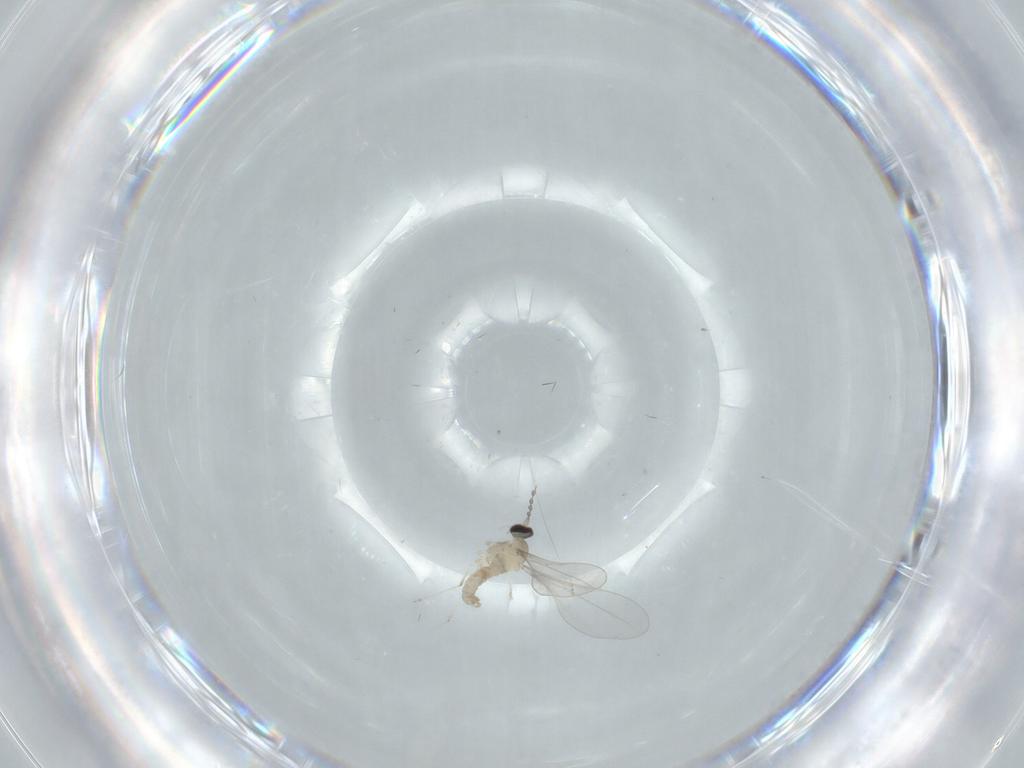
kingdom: Animalia
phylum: Arthropoda
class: Insecta
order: Diptera
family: Cecidomyiidae
